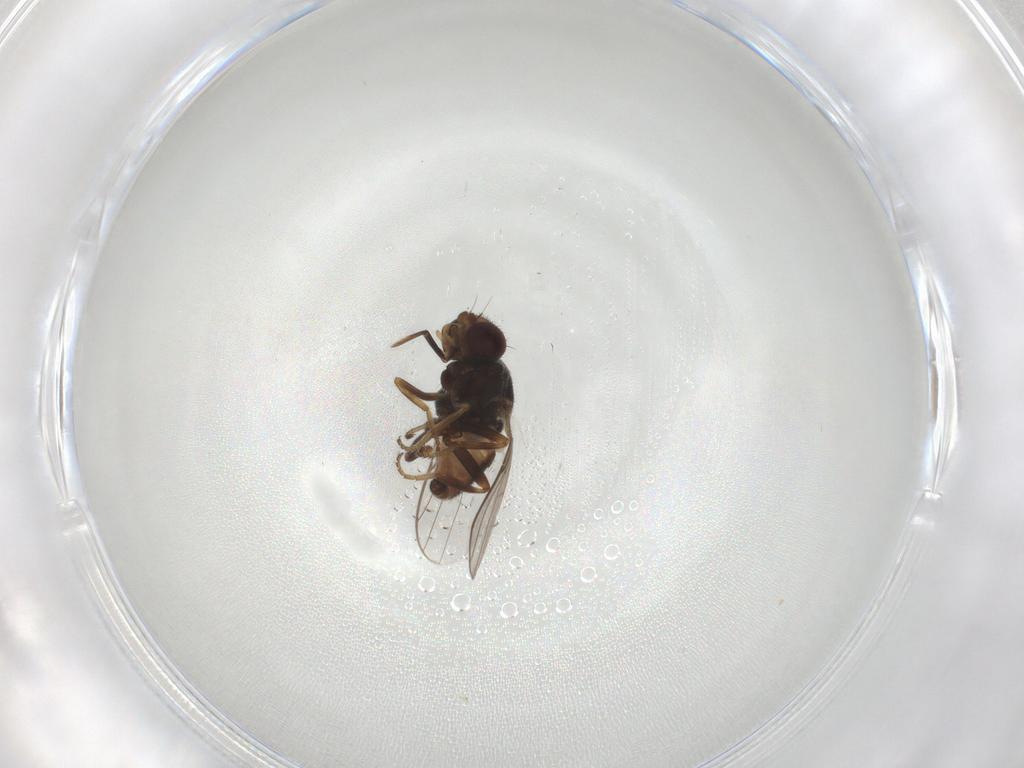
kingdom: Animalia
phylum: Arthropoda
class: Insecta
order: Diptera
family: Chloropidae
